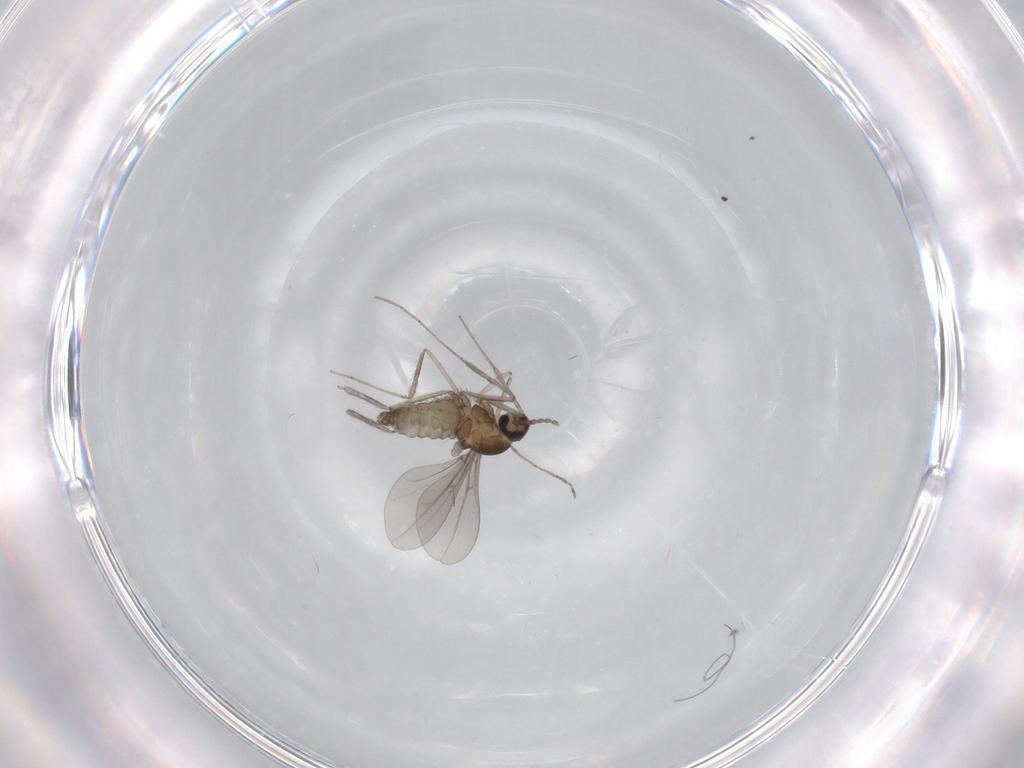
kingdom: Animalia
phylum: Arthropoda
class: Insecta
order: Diptera
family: Cecidomyiidae
